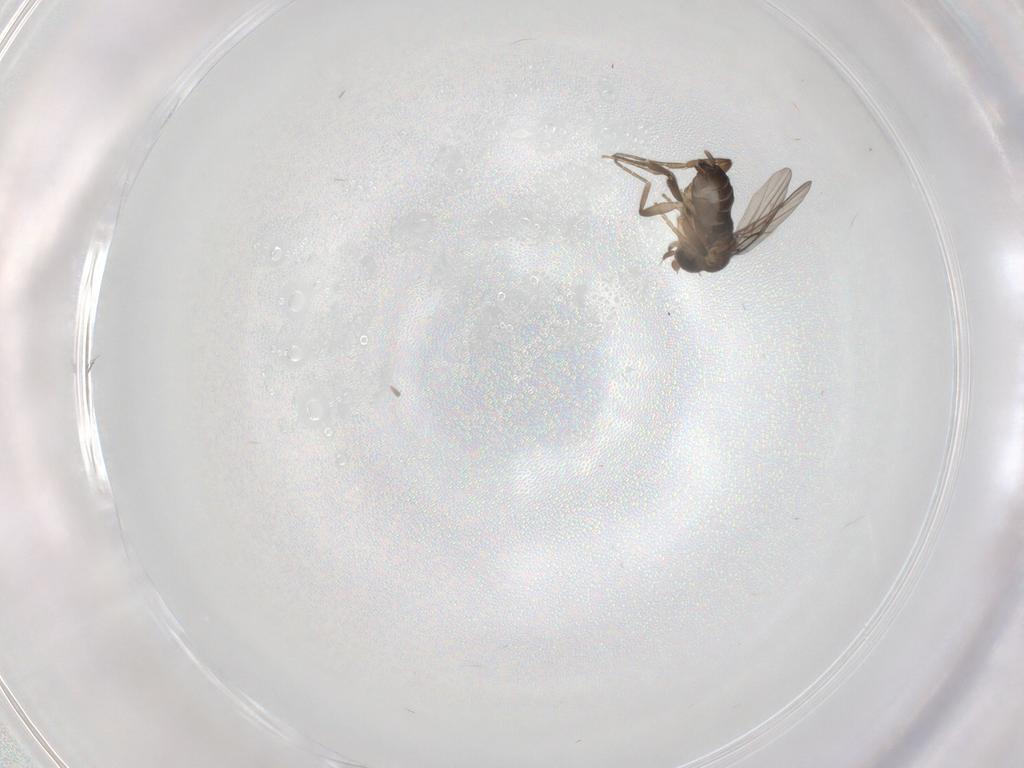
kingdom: Animalia
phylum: Arthropoda
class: Insecta
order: Diptera
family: Phoridae
